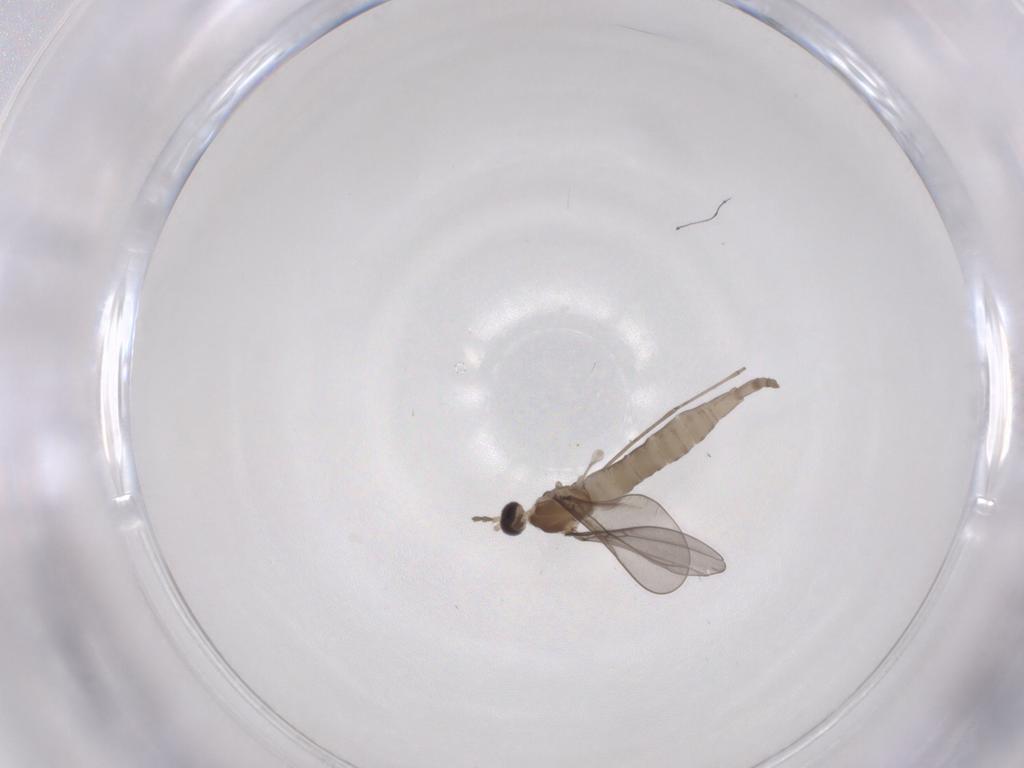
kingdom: Animalia
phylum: Arthropoda
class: Insecta
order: Diptera
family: Cecidomyiidae
